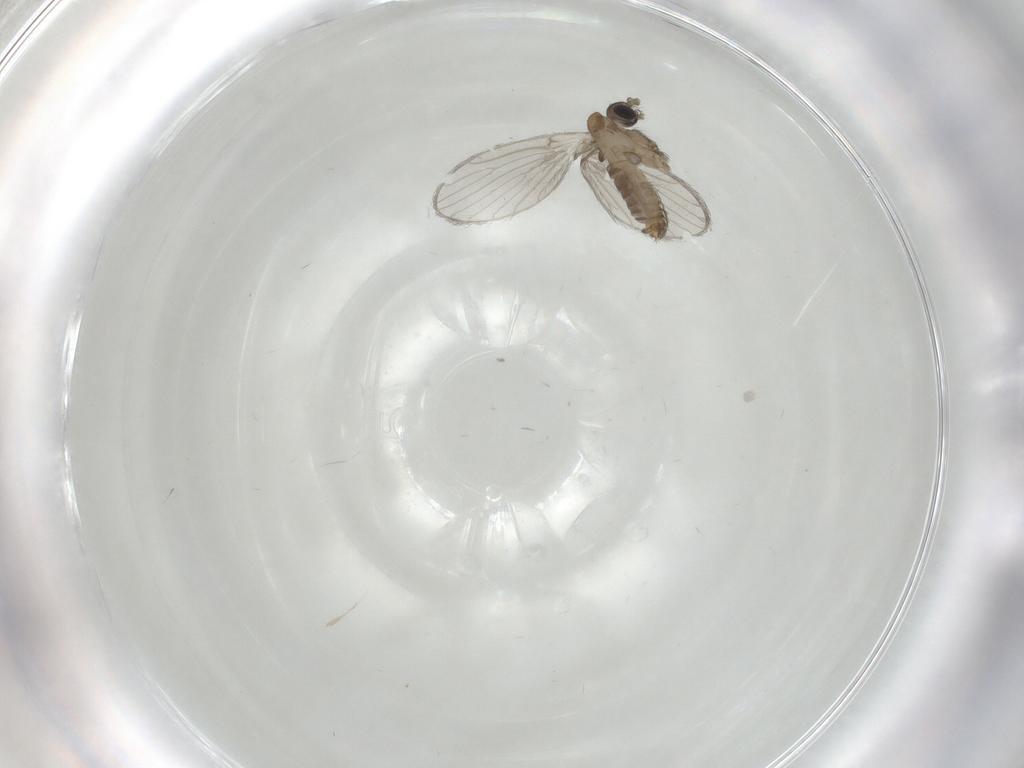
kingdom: Animalia
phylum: Arthropoda
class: Insecta
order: Diptera
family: Psychodidae
